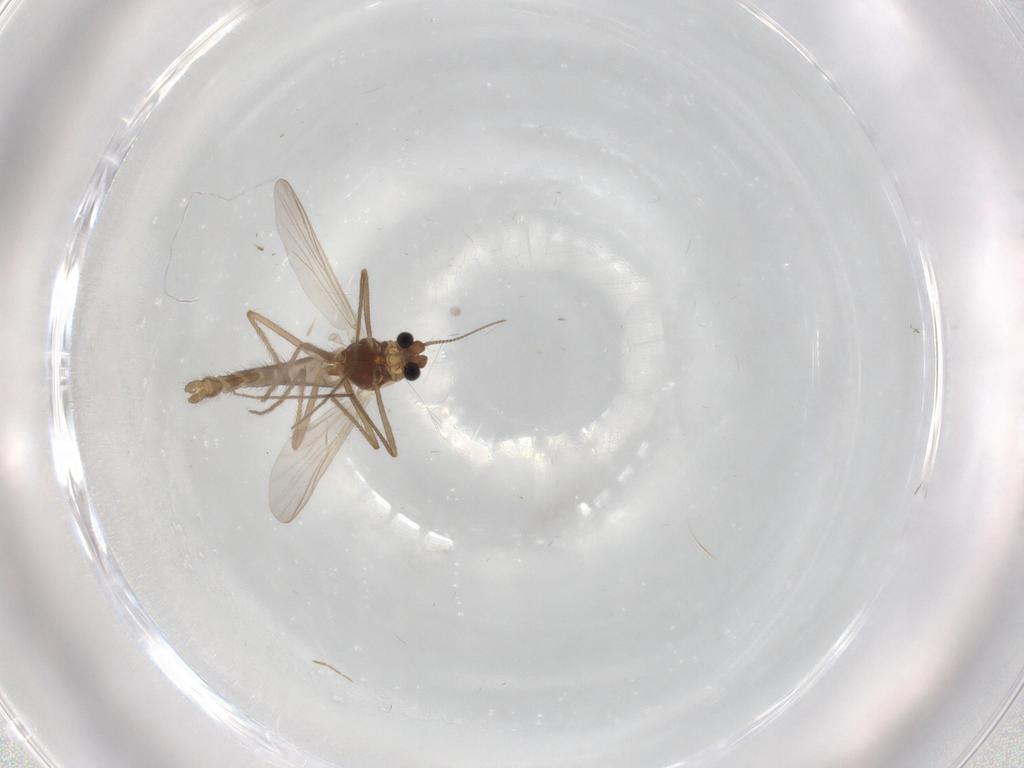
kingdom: Animalia
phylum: Arthropoda
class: Insecta
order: Diptera
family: Chironomidae
